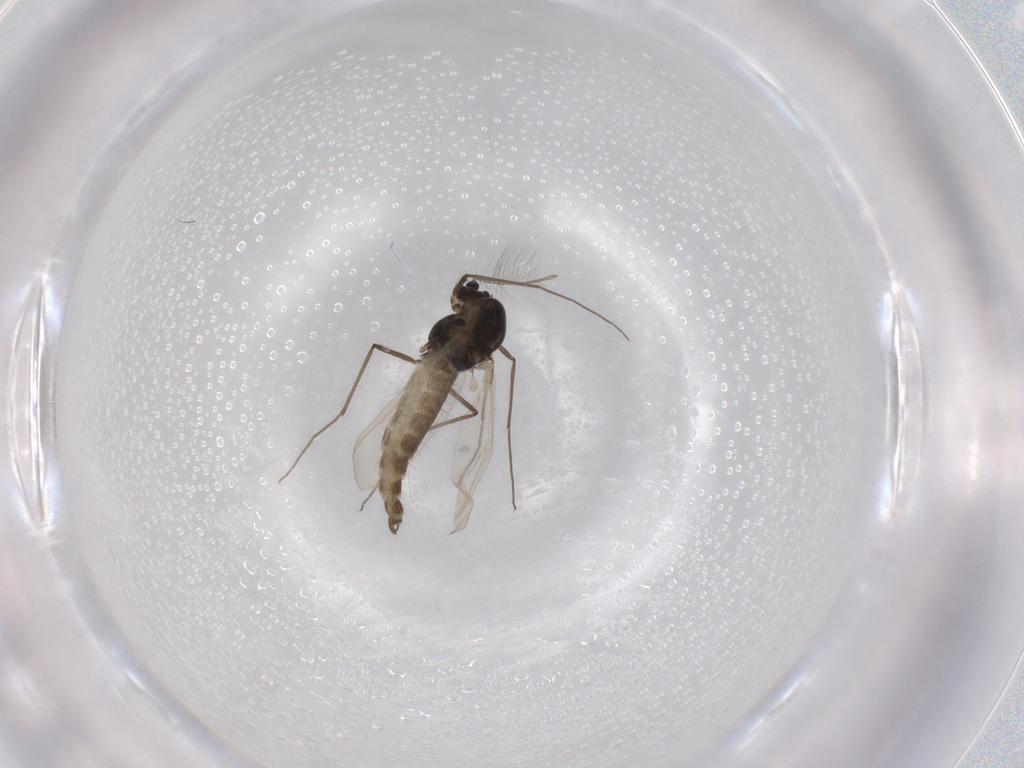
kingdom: Animalia
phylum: Arthropoda
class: Insecta
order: Diptera
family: Chironomidae
